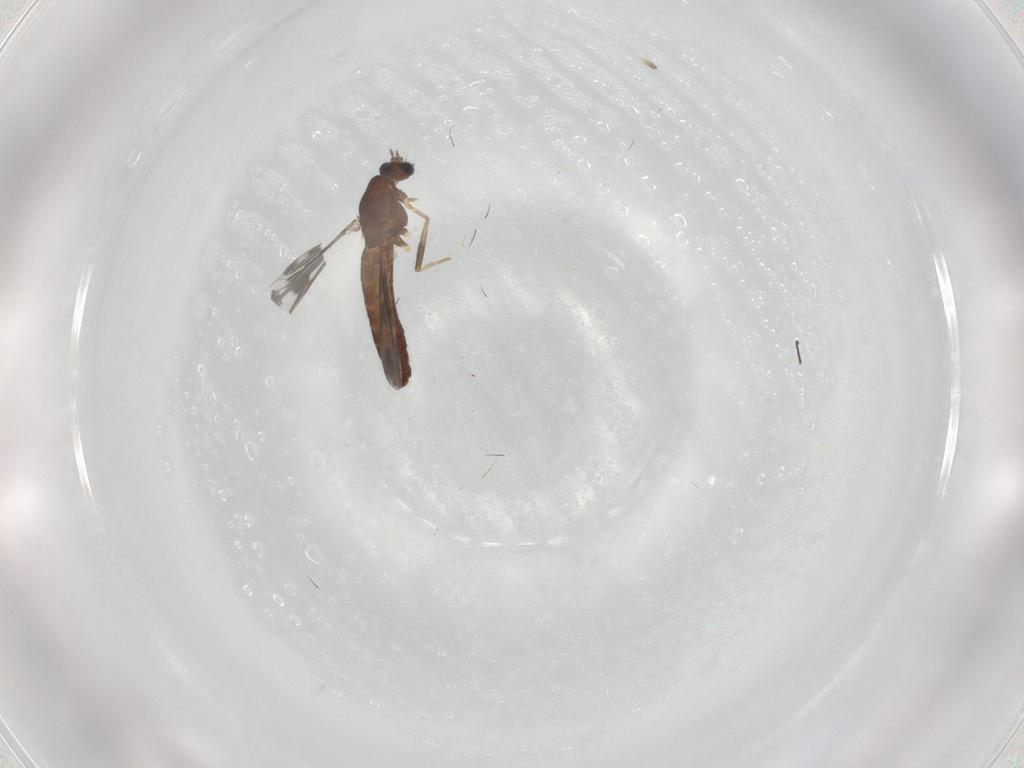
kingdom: Animalia
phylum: Arthropoda
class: Insecta
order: Diptera
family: Chironomidae
